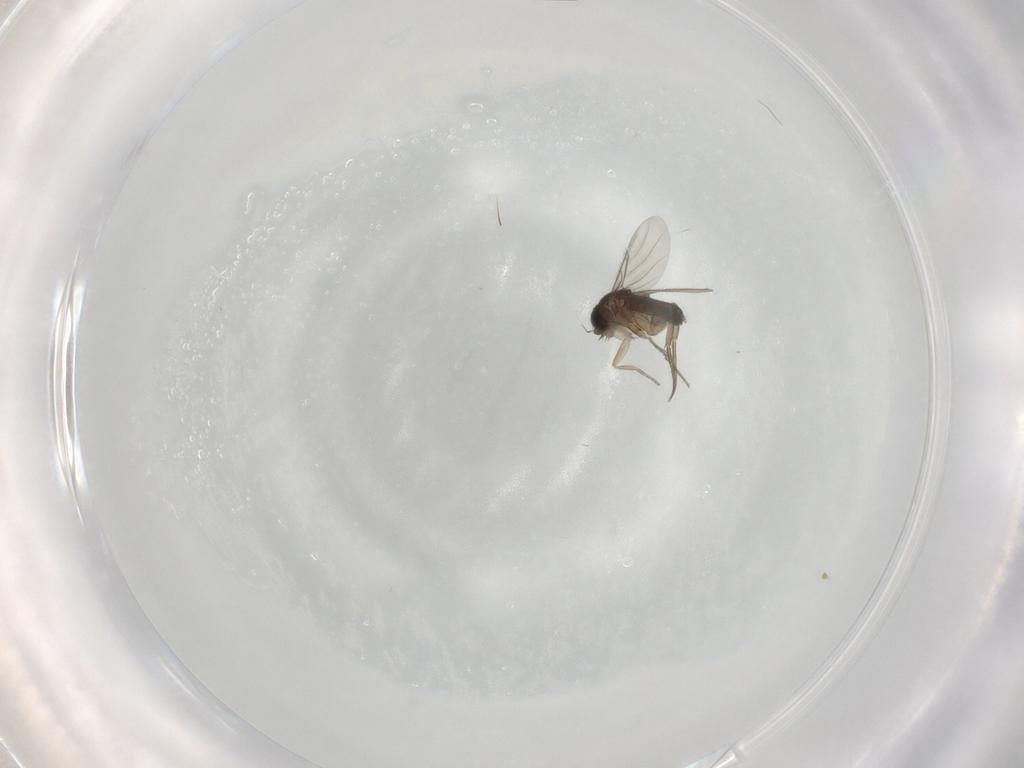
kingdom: Animalia
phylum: Arthropoda
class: Insecta
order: Diptera
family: Phoridae
